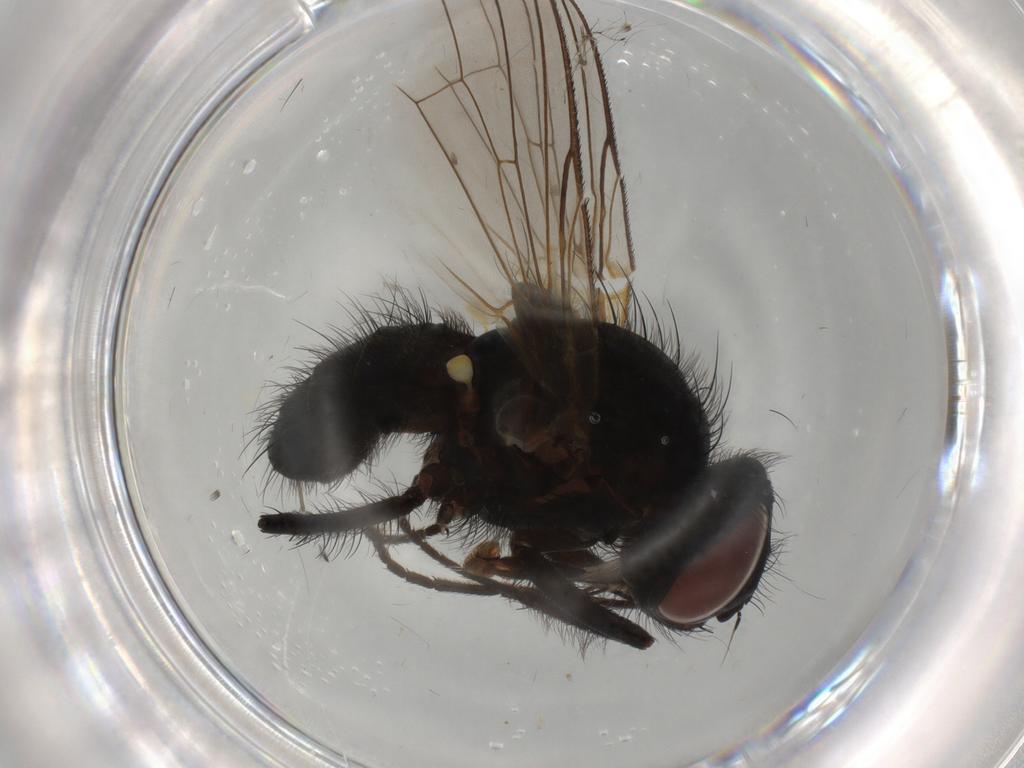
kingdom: Animalia
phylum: Arthropoda
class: Insecta
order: Diptera
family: Anthomyiidae
